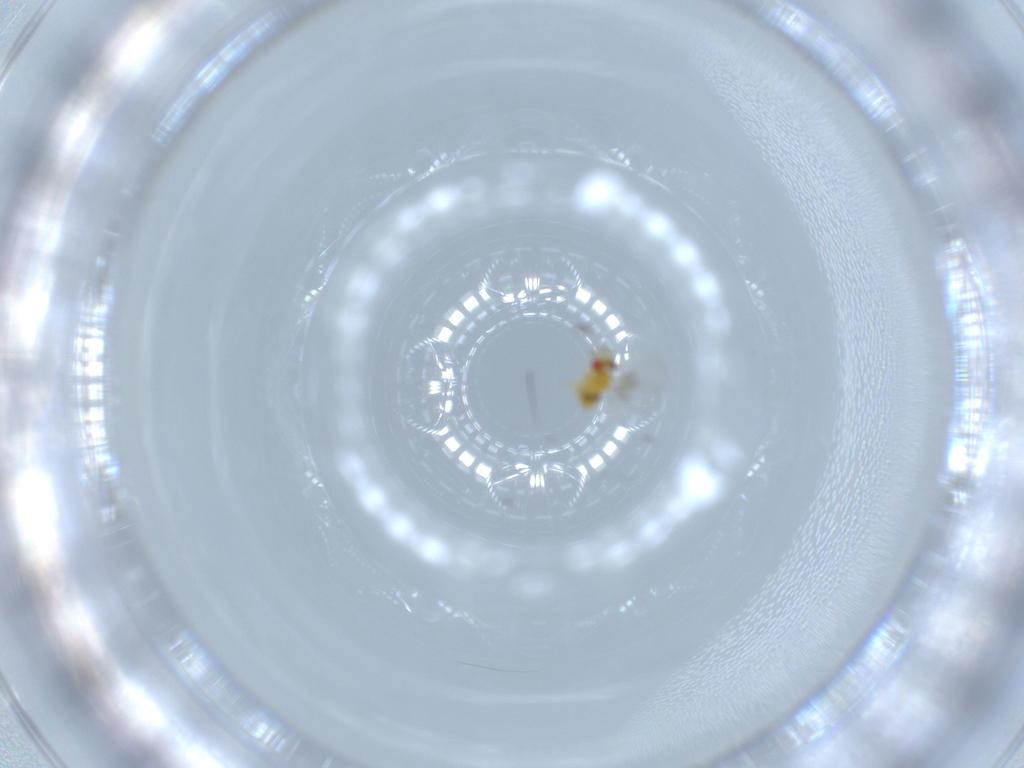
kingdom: Animalia
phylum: Arthropoda
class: Insecta
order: Hymenoptera
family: Trichogrammatidae
